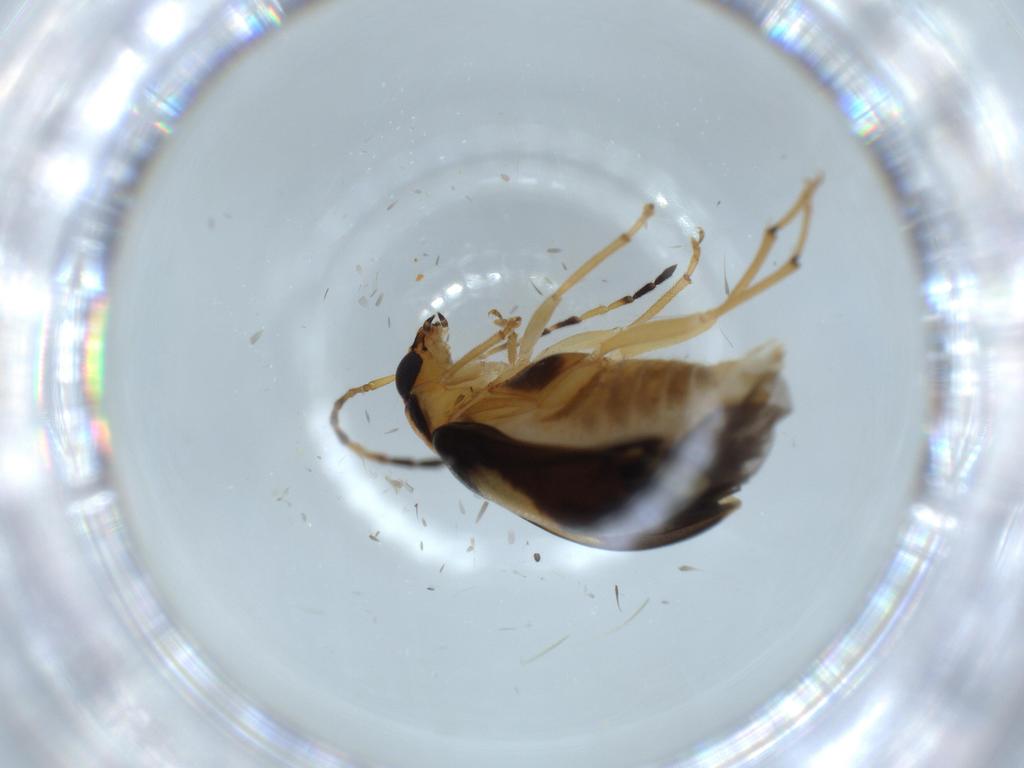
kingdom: Animalia
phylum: Arthropoda
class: Insecta
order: Coleoptera
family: Chrysomelidae
